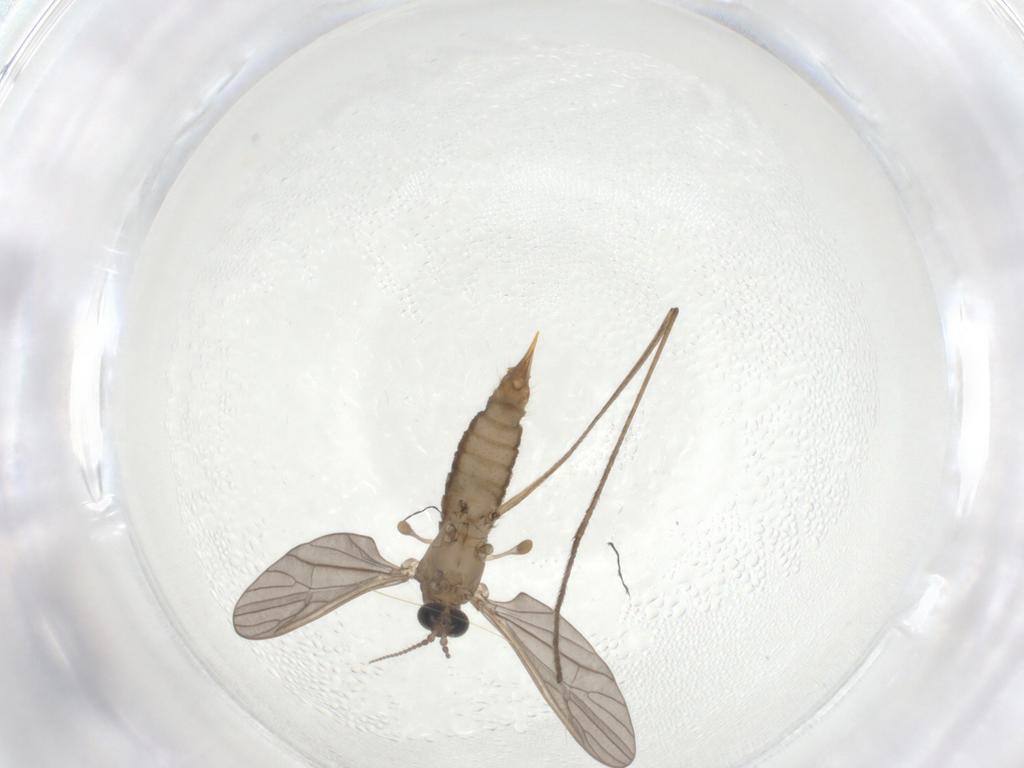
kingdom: Animalia
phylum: Arthropoda
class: Insecta
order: Diptera
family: Limoniidae
